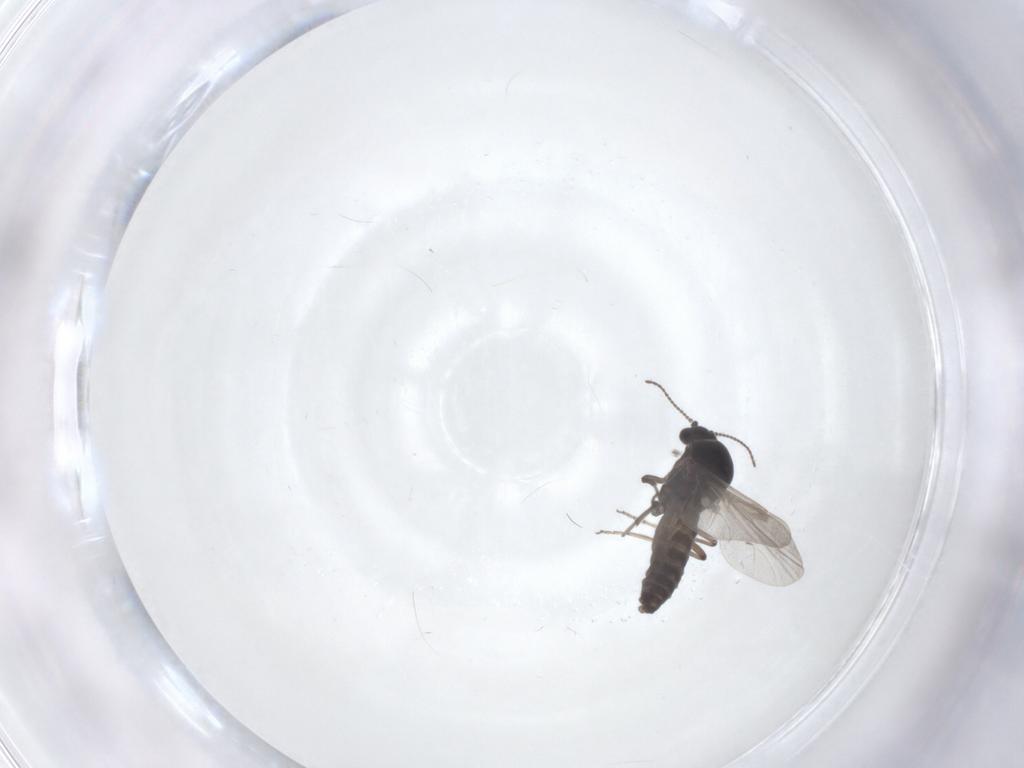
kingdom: Animalia
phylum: Arthropoda
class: Insecta
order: Diptera
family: Ceratopogonidae
